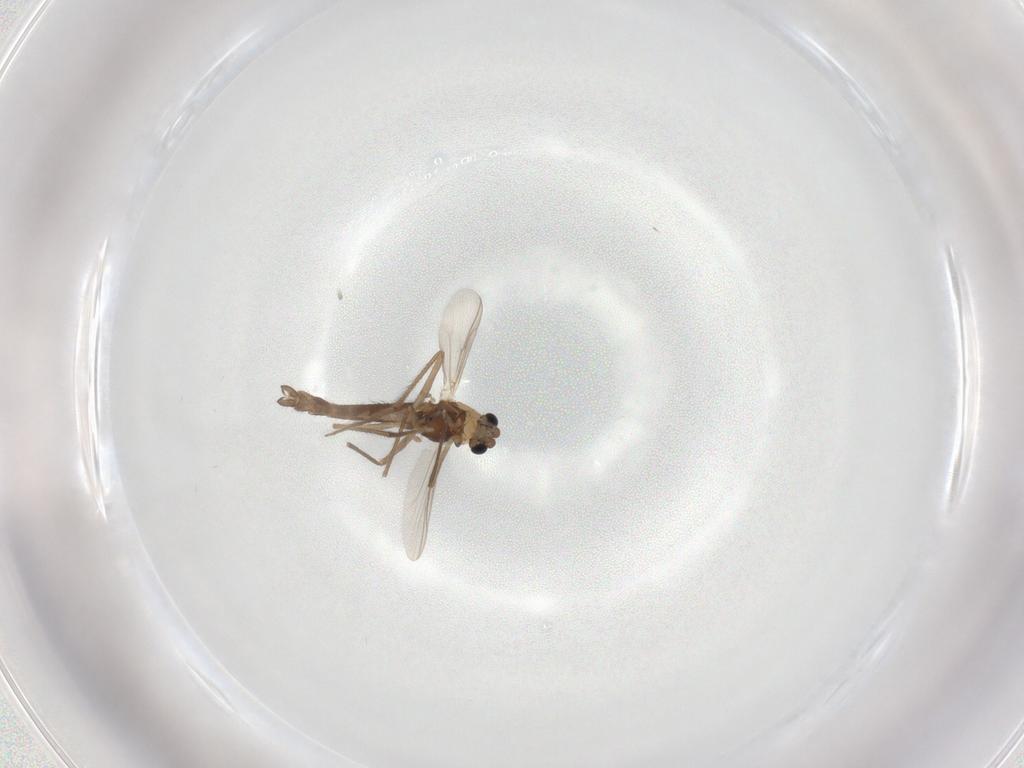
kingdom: Animalia
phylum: Arthropoda
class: Insecta
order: Diptera
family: Chironomidae
